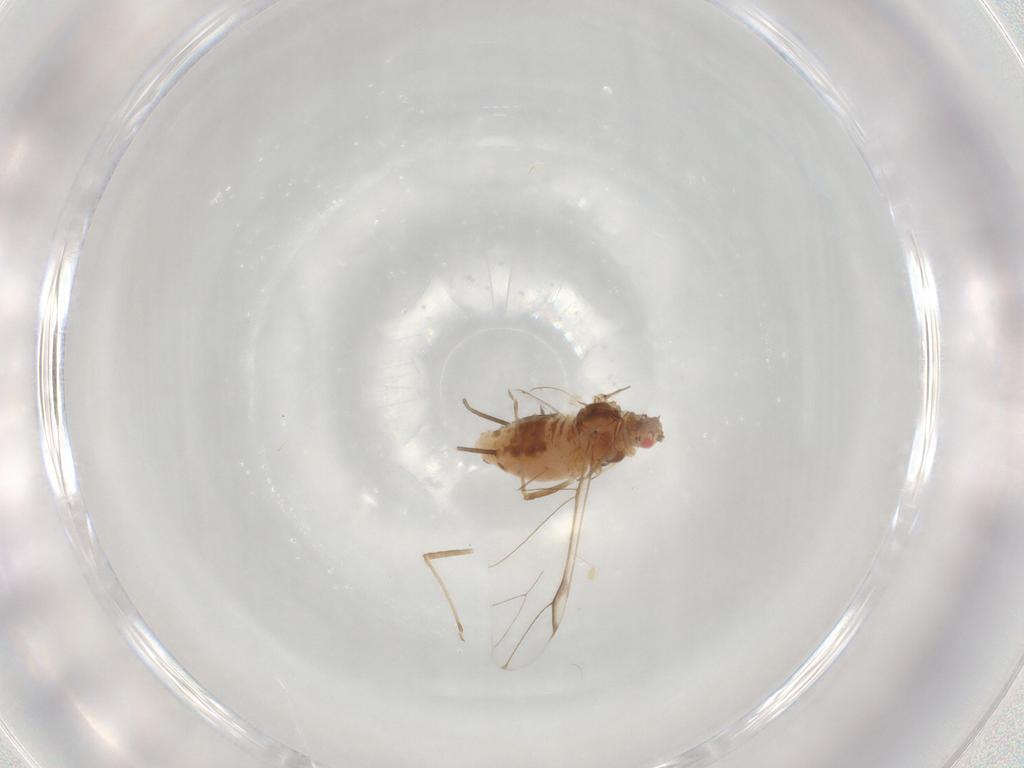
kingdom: Animalia
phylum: Arthropoda
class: Insecta
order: Hemiptera
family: Aphididae
